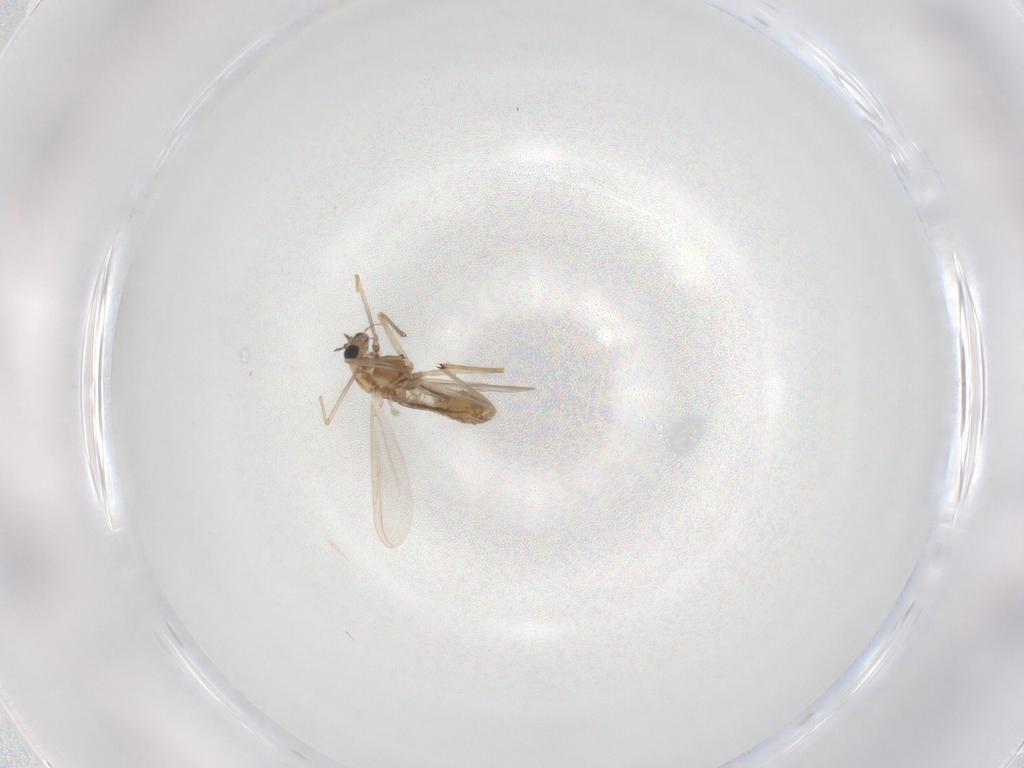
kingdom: Animalia
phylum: Arthropoda
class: Insecta
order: Diptera
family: Chironomidae
